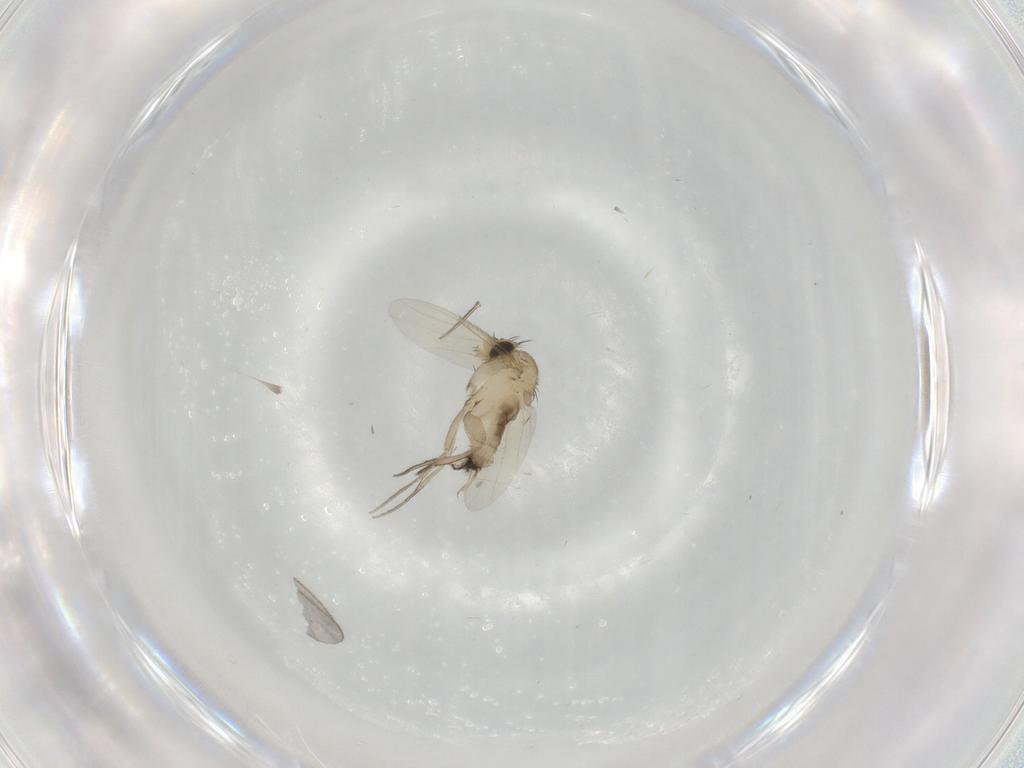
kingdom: Animalia
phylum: Arthropoda
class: Insecta
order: Diptera
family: Phoridae
